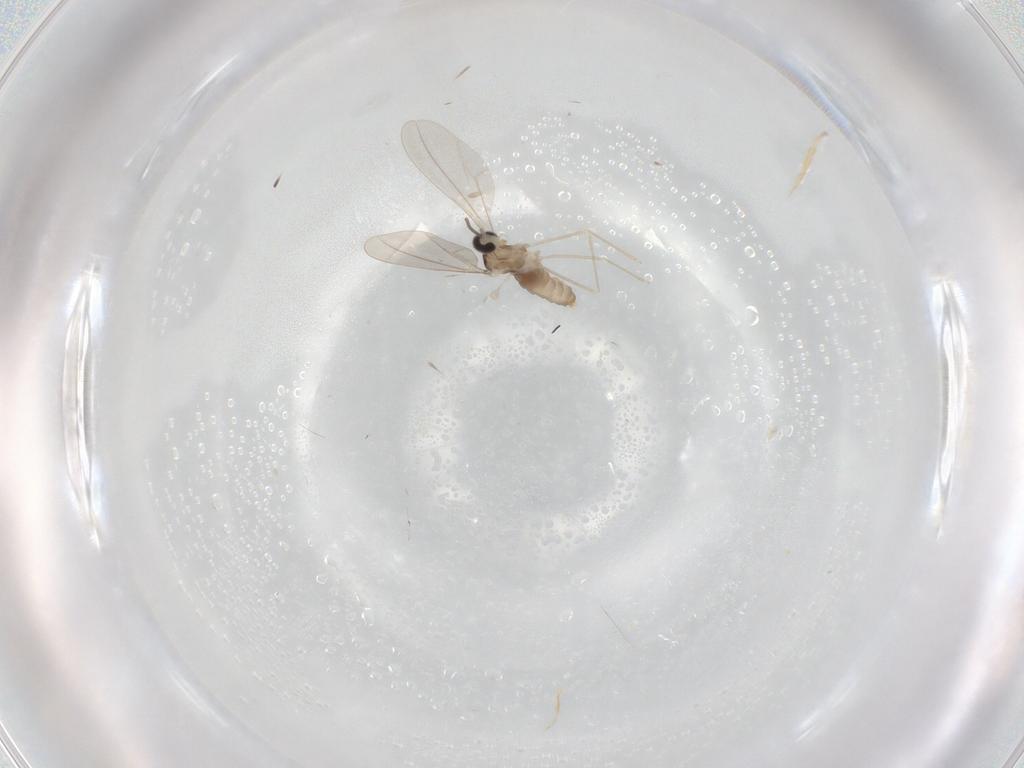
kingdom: Animalia
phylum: Arthropoda
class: Insecta
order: Diptera
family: Cecidomyiidae
